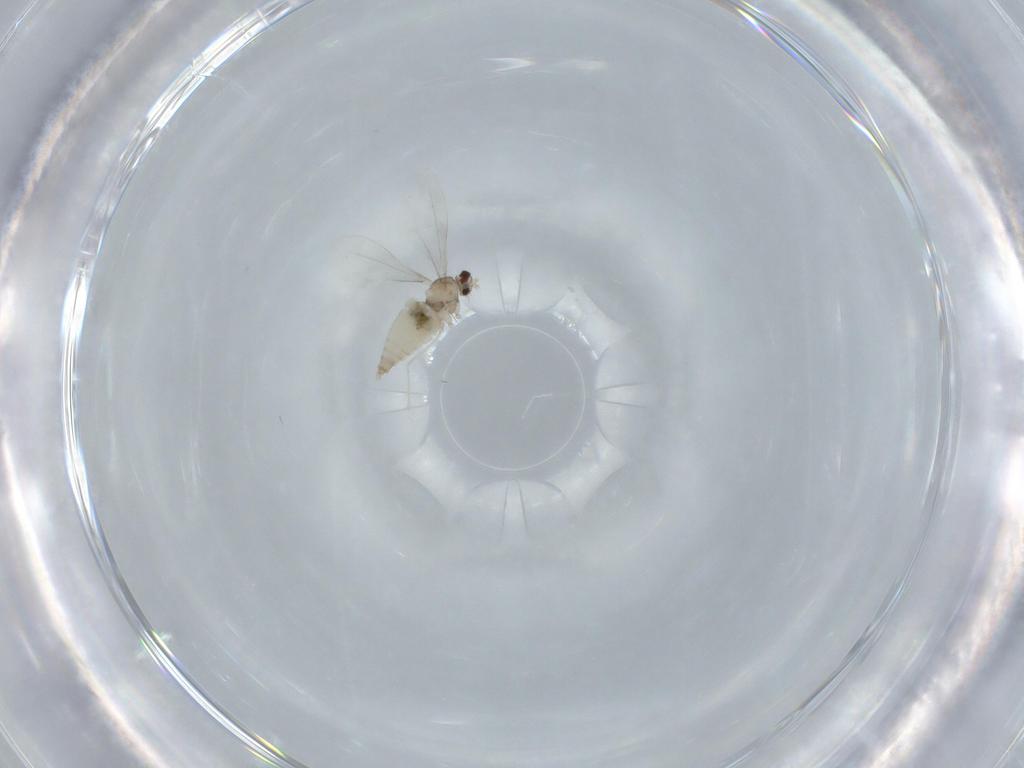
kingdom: Animalia
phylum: Arthropoda
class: Insecta
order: Diptera
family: Cecidomyiidae
